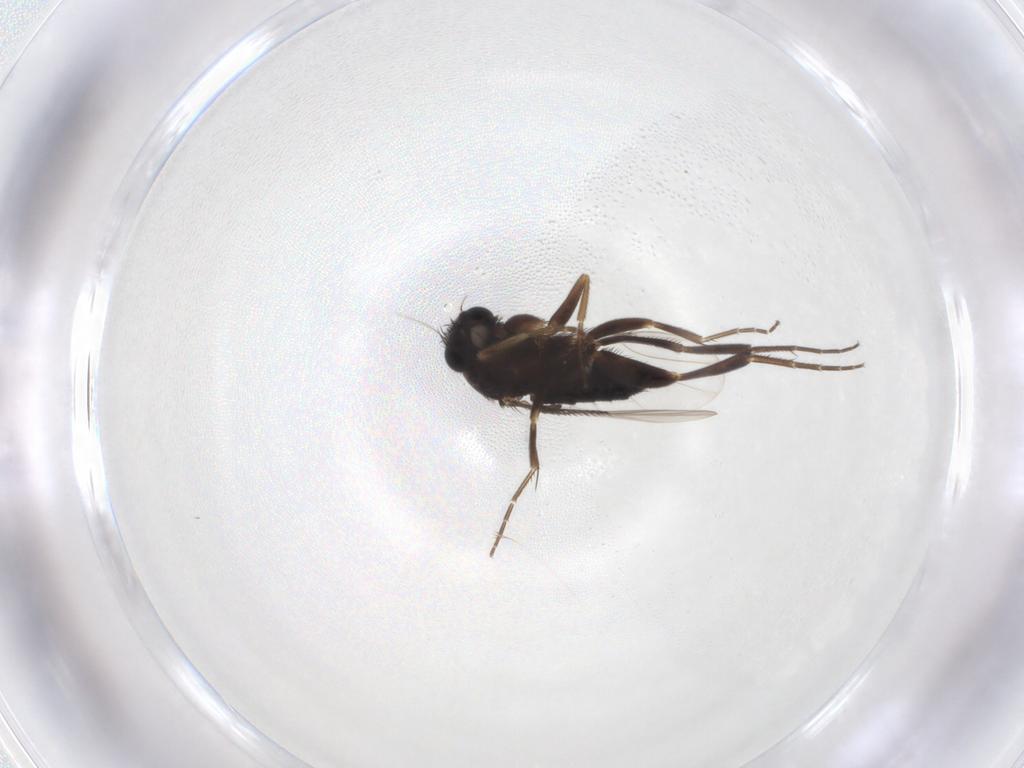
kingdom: Animalia
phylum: Arthropoda
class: Insecta
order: Diptera
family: Phoridae
